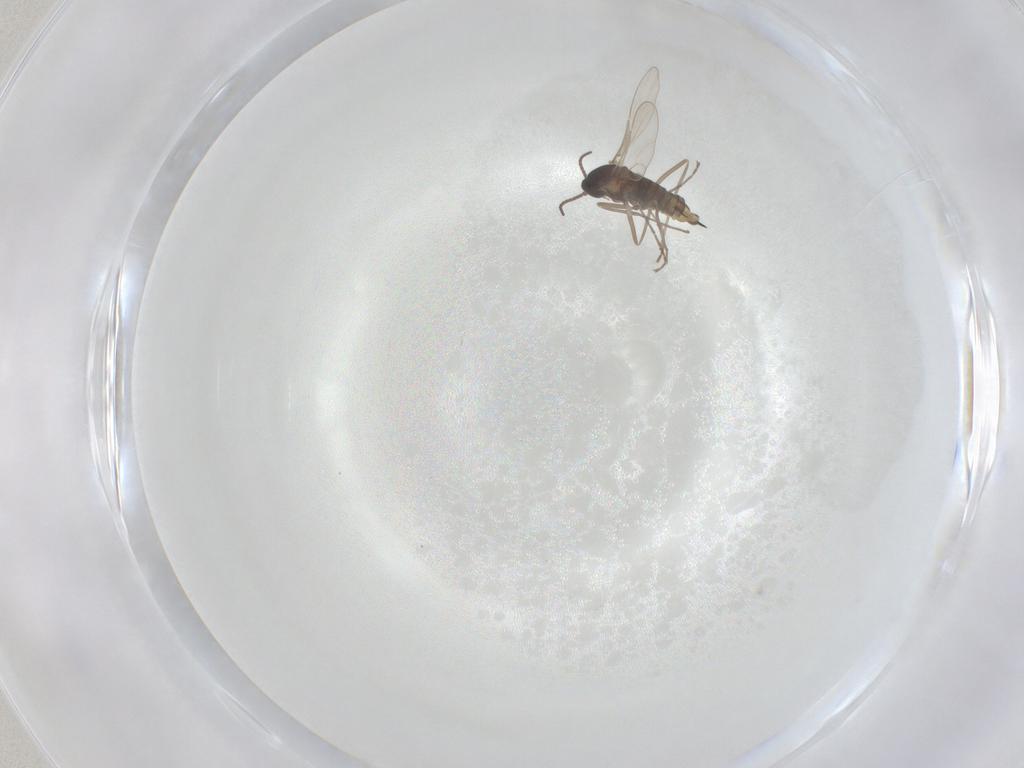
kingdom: Animalia
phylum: Arthropoda
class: Insecta
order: Diptera
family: Cecidomyiidae
